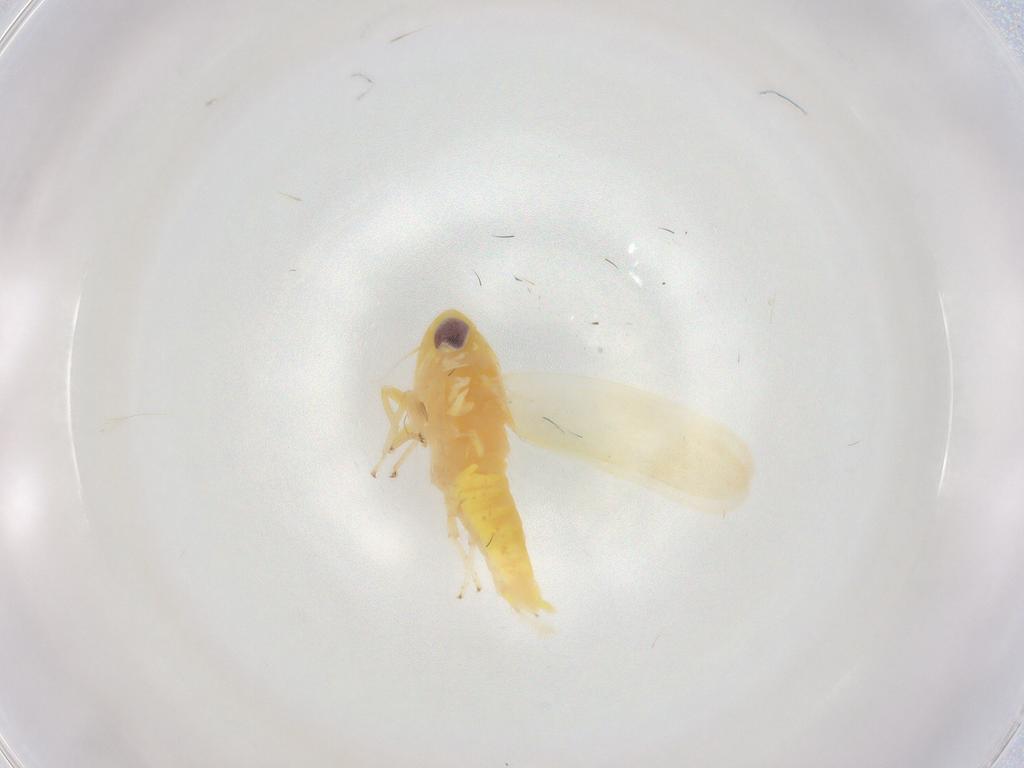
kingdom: Animalia
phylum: Arthropoda
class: Insecta
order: Hemiptera
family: Cicadellidae
